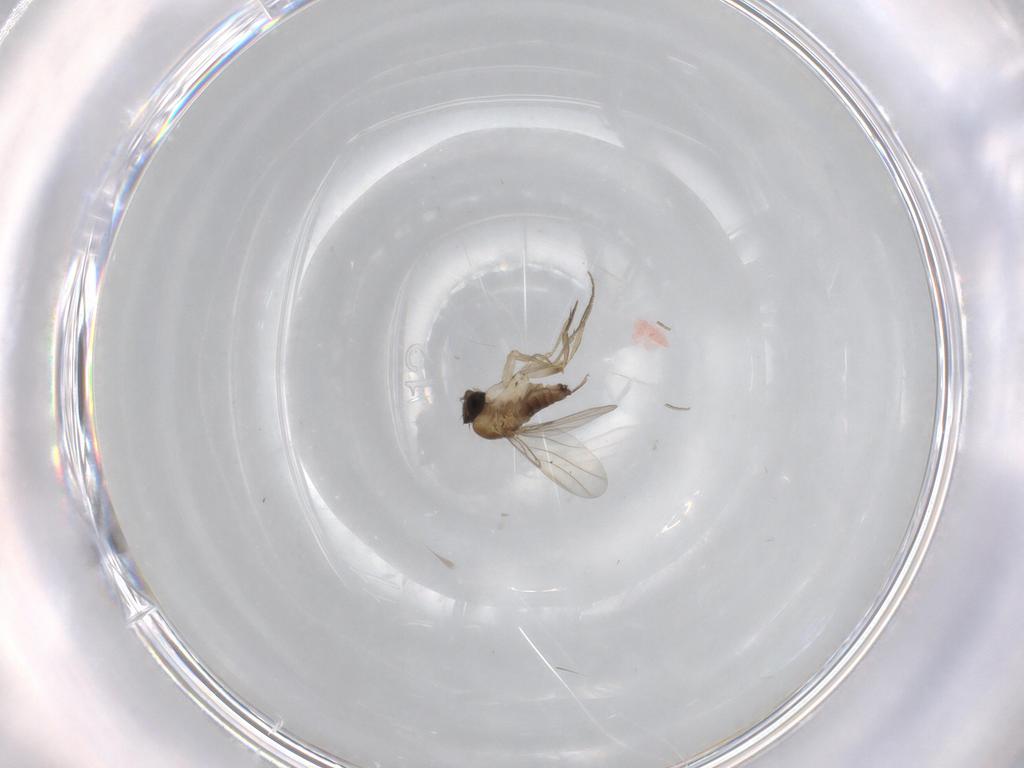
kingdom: Animalia
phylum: Arthropoda
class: Insecta
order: Diptera
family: Phoridae
